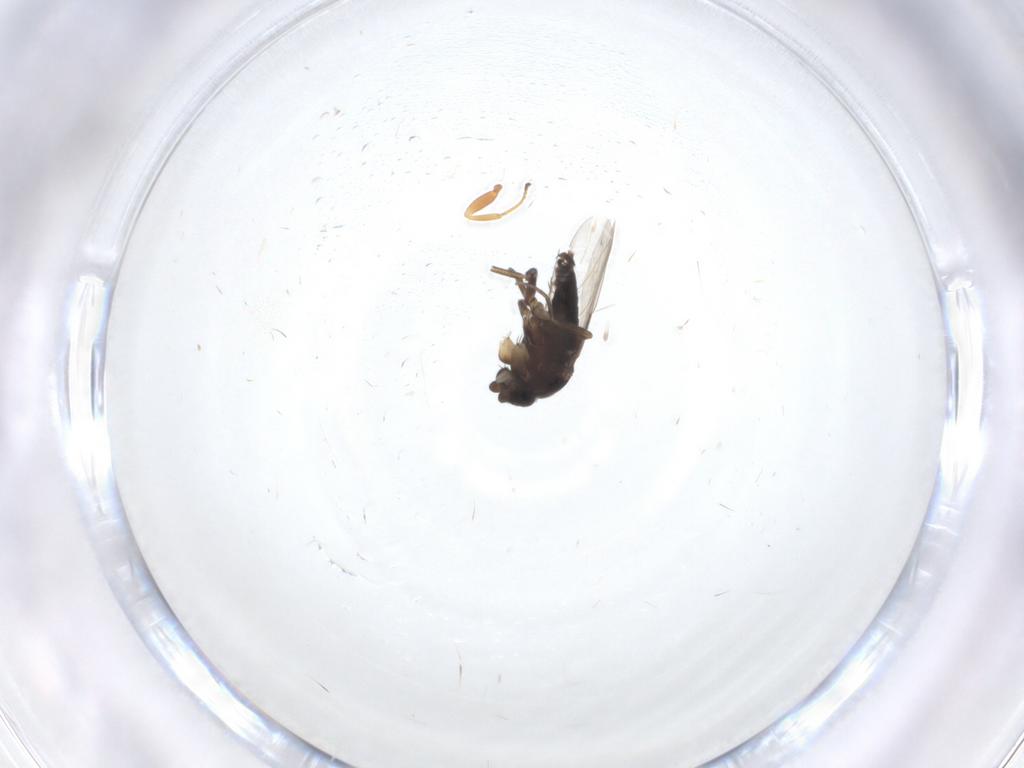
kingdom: Animalia
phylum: Arthropoda
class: Insecta
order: Diptera
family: Phoridae
